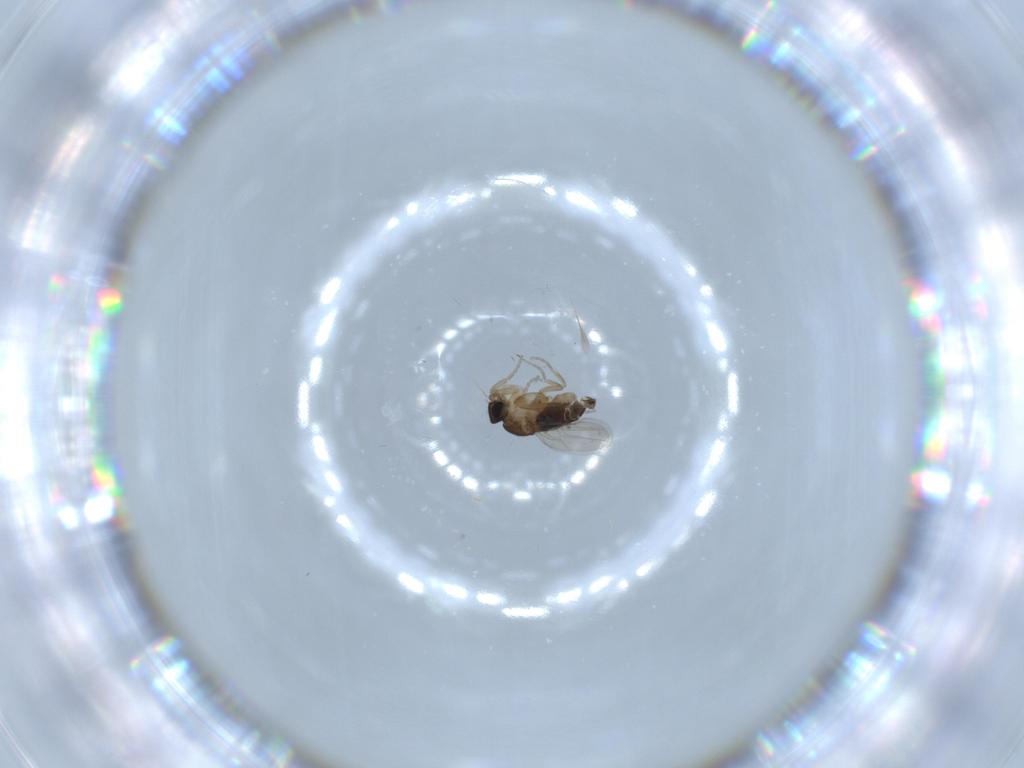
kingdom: Animalia
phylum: Arthropoda
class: Insecta
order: Diptera
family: Phoridae
